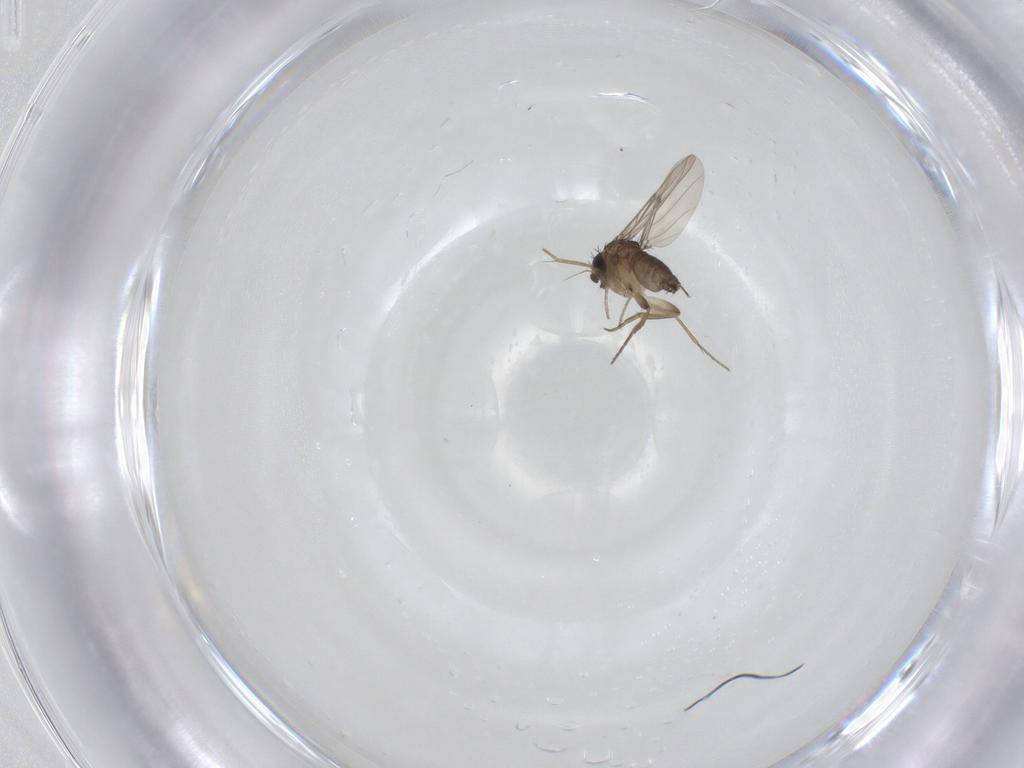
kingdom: Animalia
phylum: Arthropoda
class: Insecta
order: Diptera
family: Phoridae
